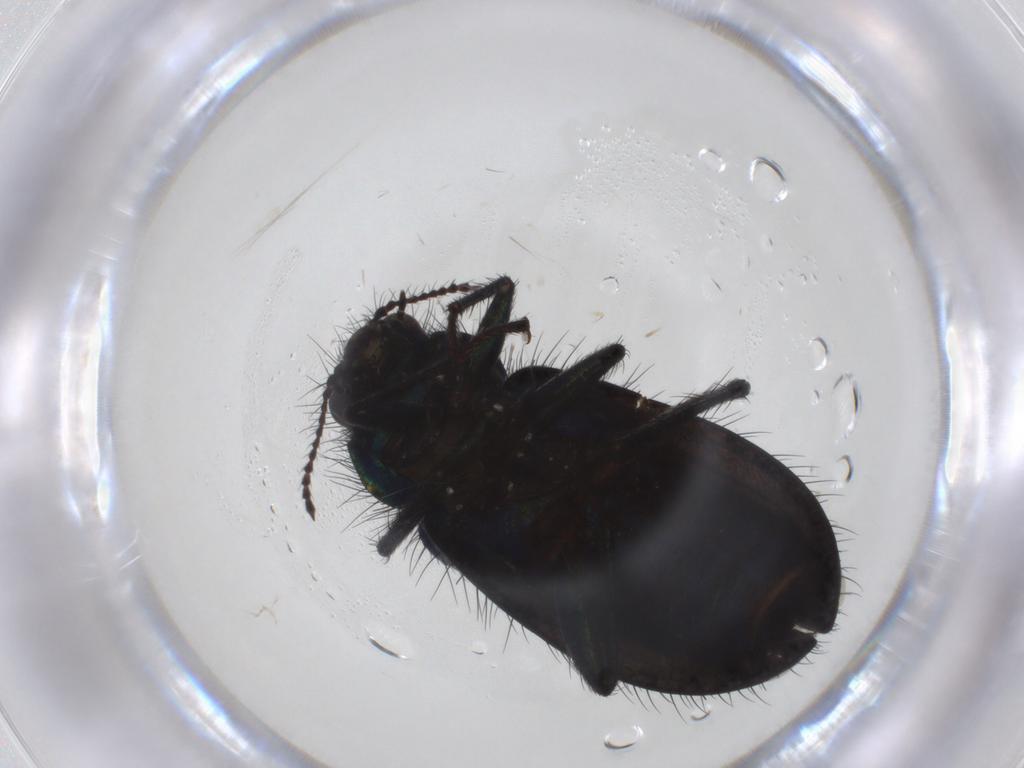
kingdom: Animalia
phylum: Arthropoda
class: Insecta
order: Coleoptera
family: Melyridae
